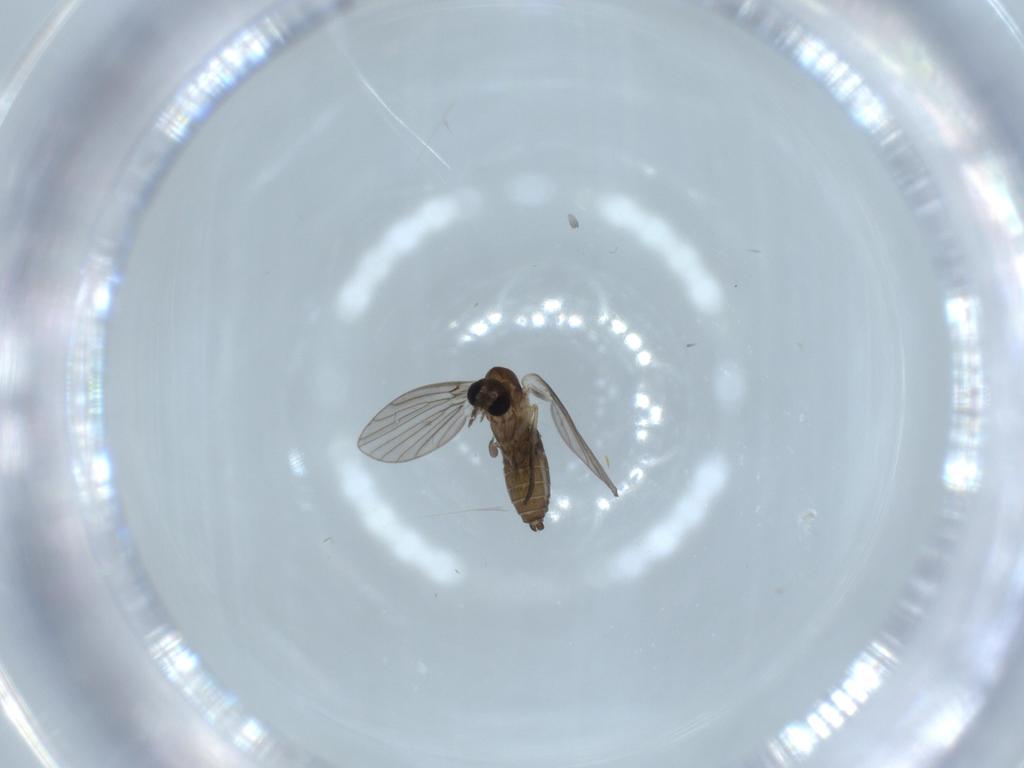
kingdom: Animalia
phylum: Arthropoda
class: Insecta
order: Diptera
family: Psychodidae
